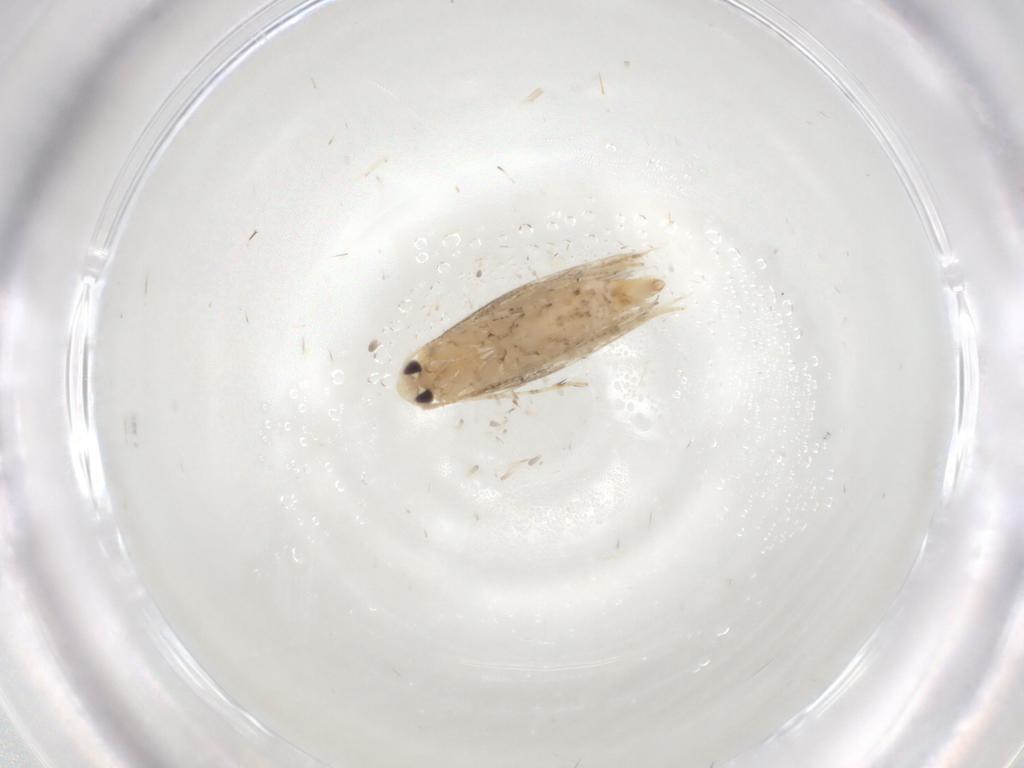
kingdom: Animalia
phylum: Arthropoda
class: Insecta
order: Lepidoptera
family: Gracillariidae
